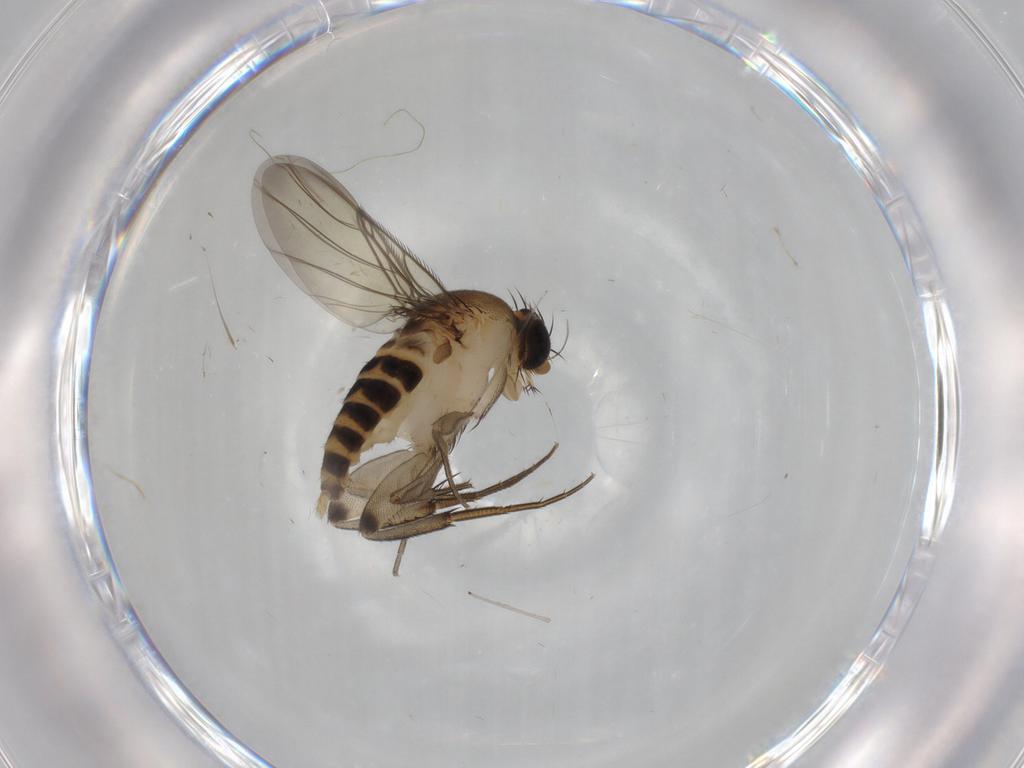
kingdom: Animalia
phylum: Arthropoda
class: Insecta
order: Diptera
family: Phoridae
